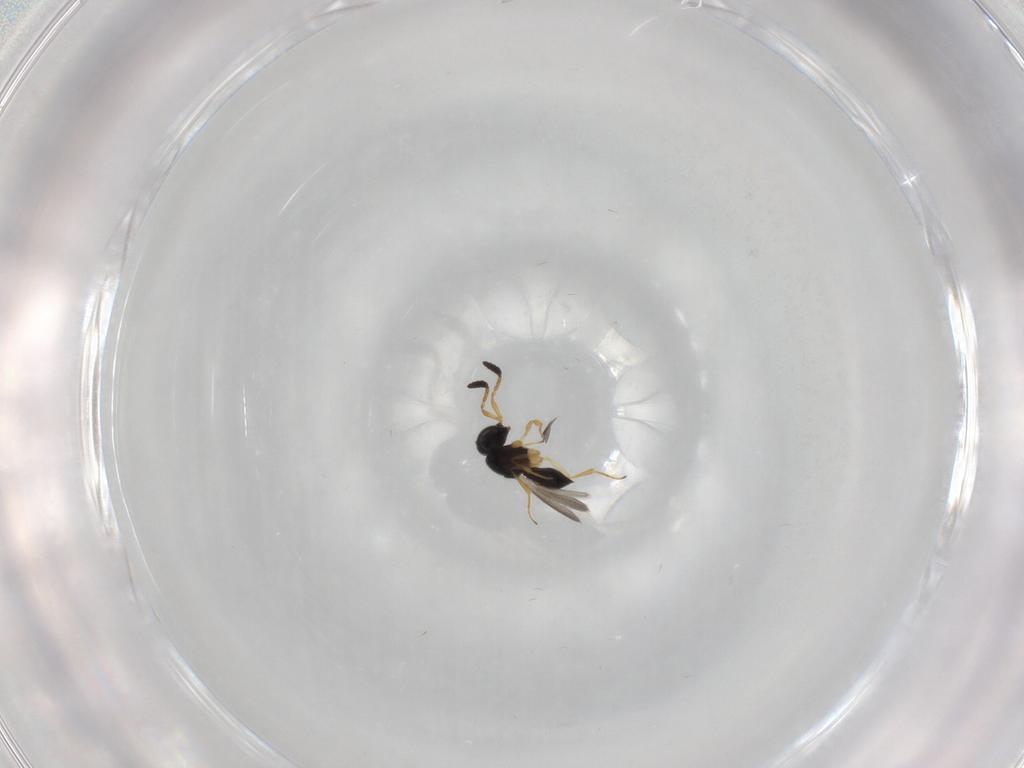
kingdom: Animalia
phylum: Arthropoda
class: Insecta
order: Hymenoptera
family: Scelionidae
